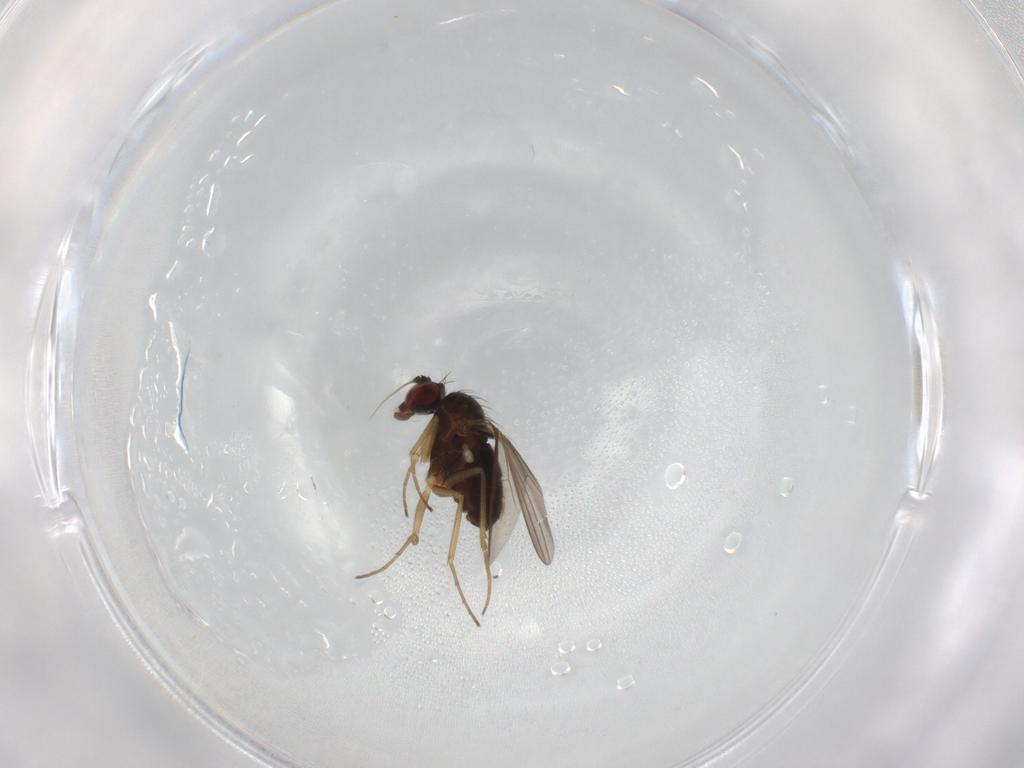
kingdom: Animalia
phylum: Arthropoda
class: Insecta
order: Diptera
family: Dolichopodidae
